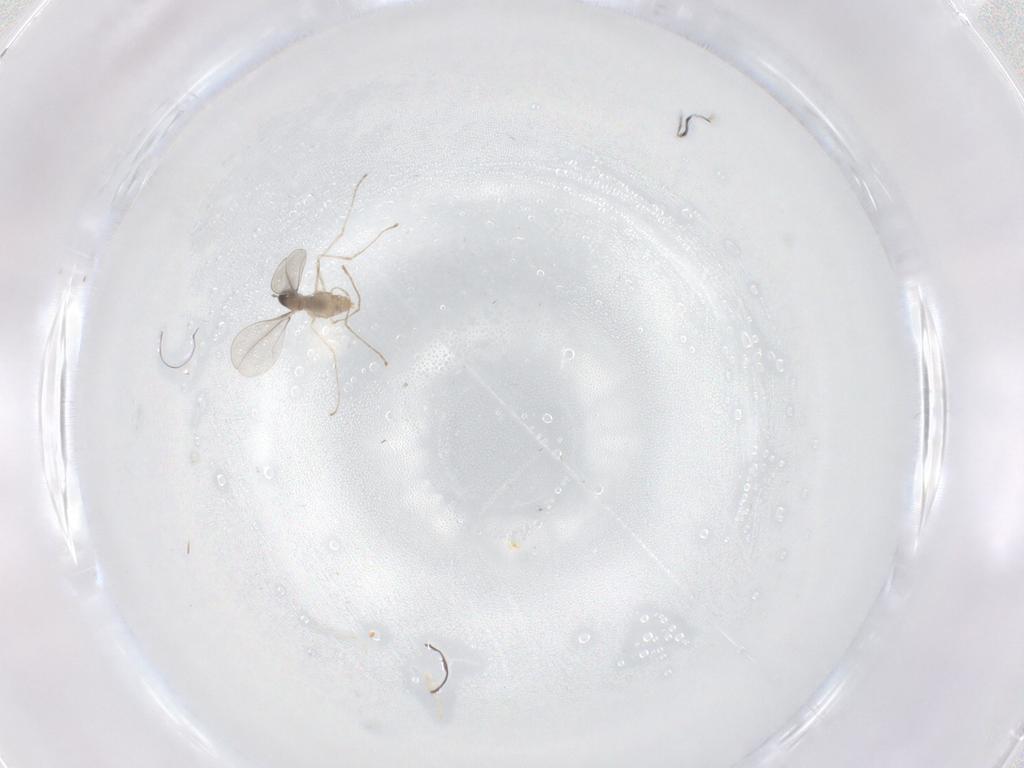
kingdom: Animalia
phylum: Arthropoda
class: Insecta
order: Diptera
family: Cecidomyiidae
